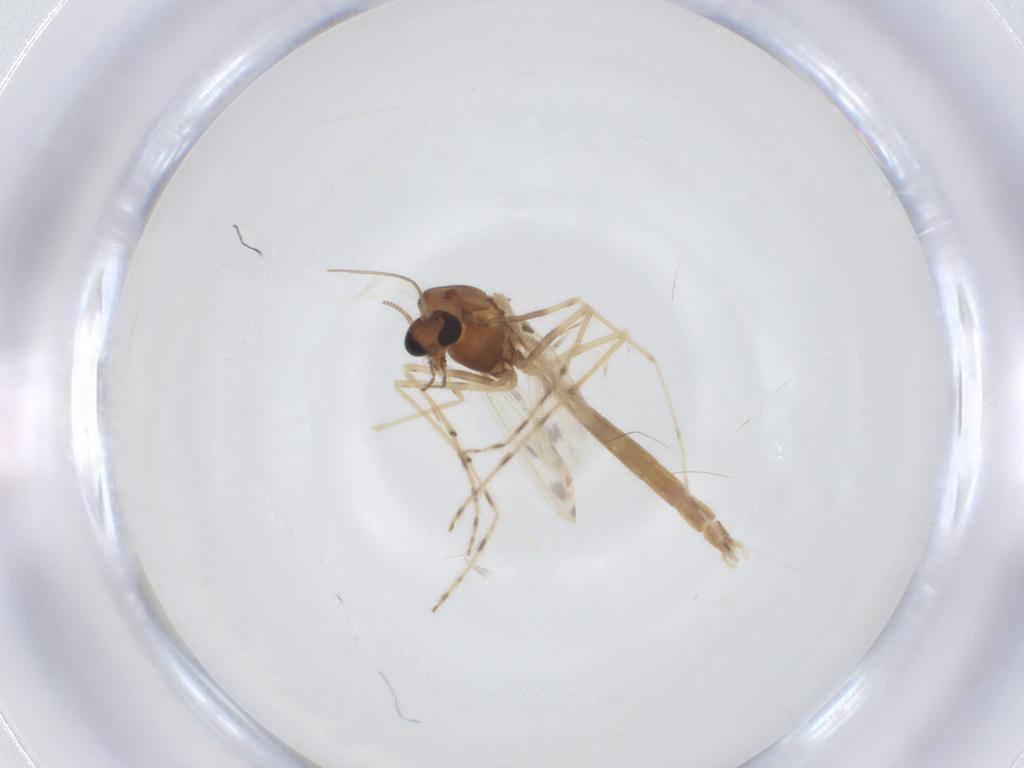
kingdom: Animalia
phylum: Arthropoda
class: Insecta
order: Diptera
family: Chironomidae
